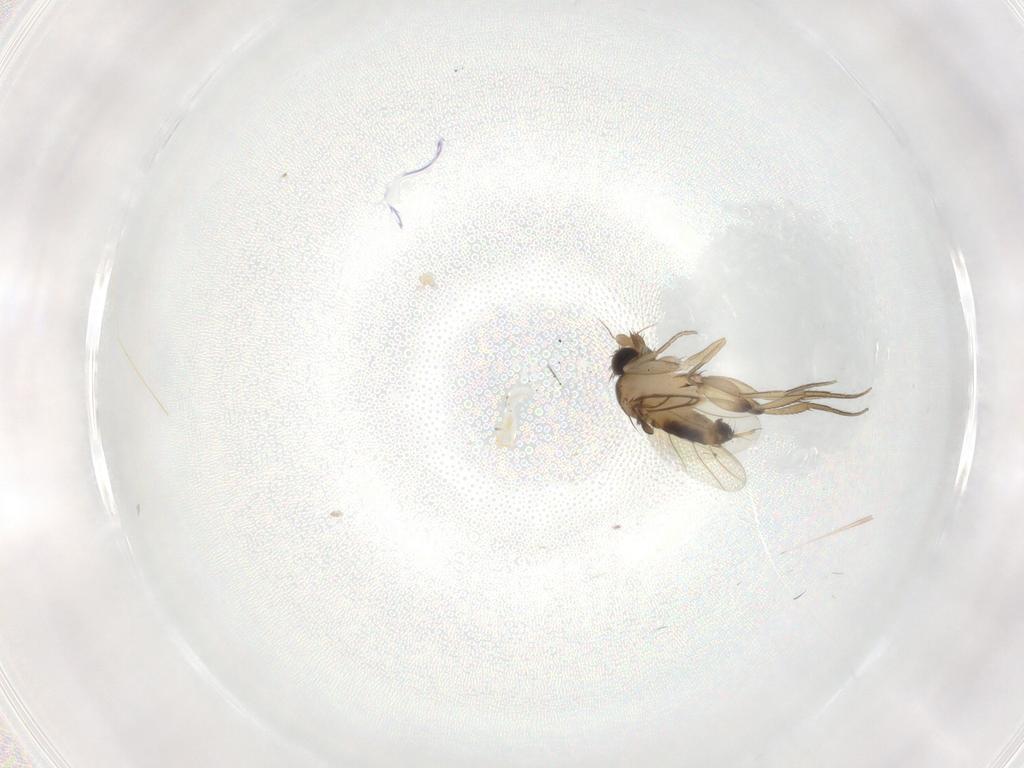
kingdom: Animalia
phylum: Arthropoda
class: Insecta
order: Diptera
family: Phoridae
